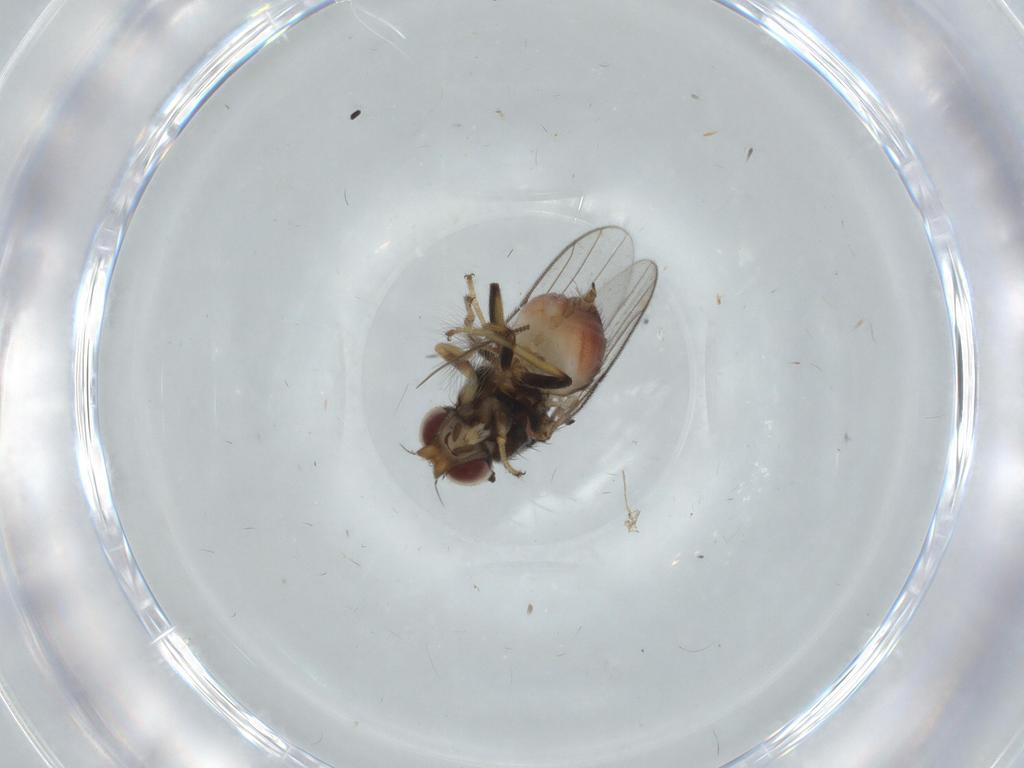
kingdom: Animalia
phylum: Arthropoda
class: Insecta
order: Diptera
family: Chloropidae
